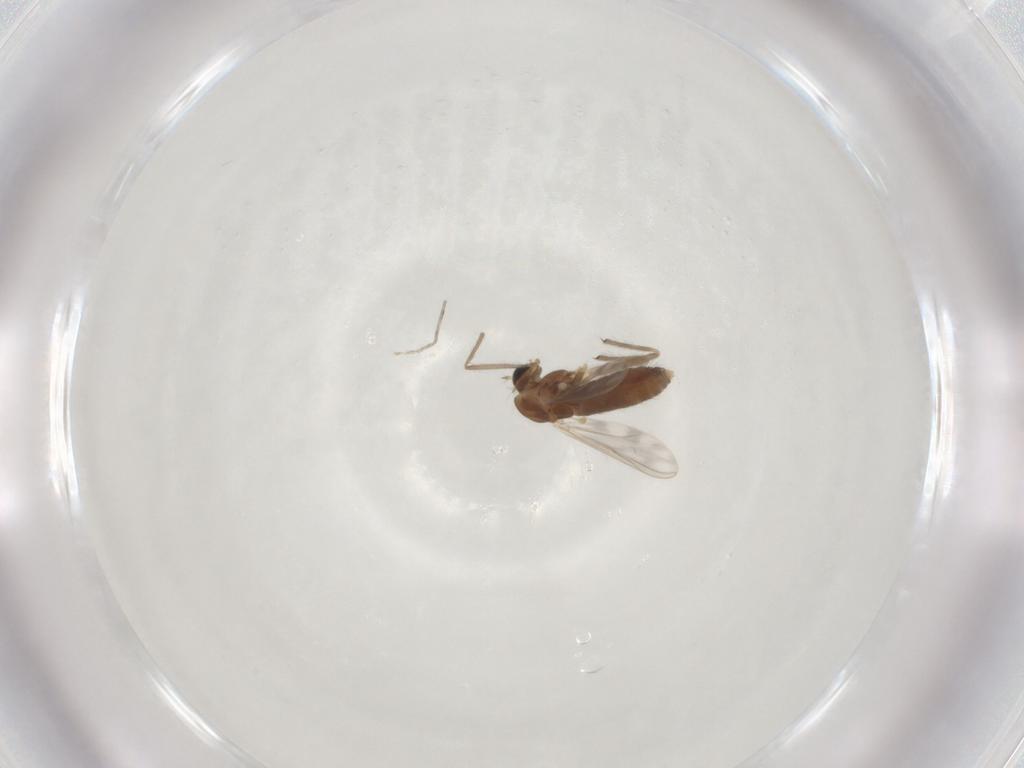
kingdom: Animalia
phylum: Arthropoda
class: Insecta
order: Diptera
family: Chironomidae
